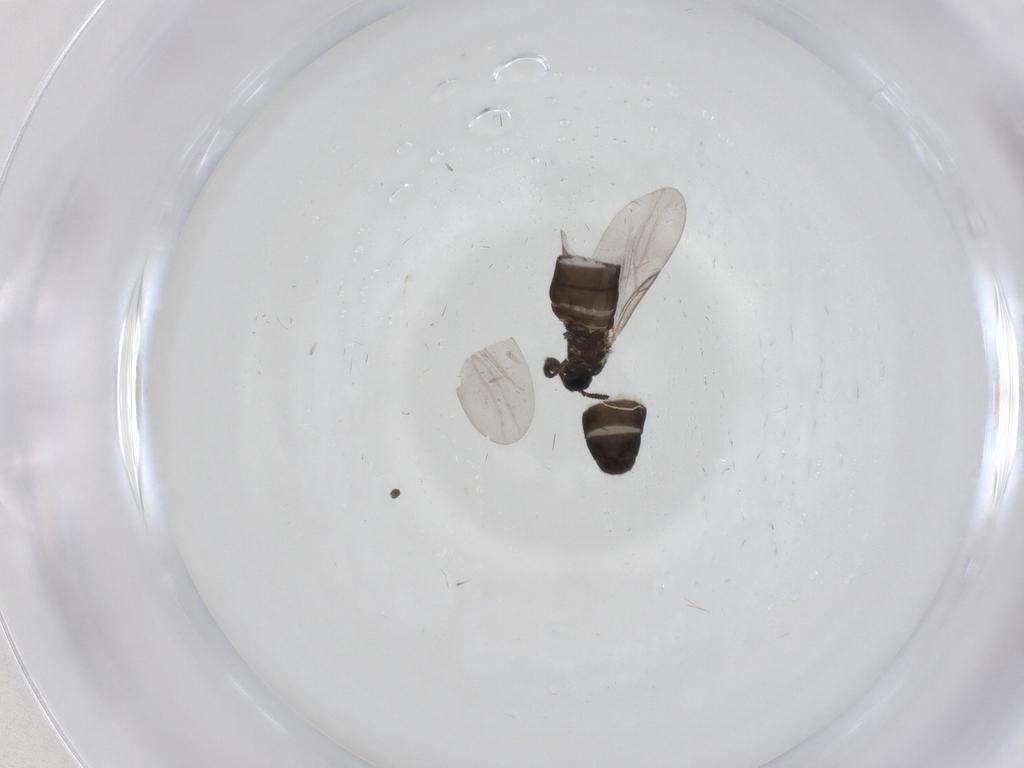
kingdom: Animalia
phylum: Arthropoda
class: Insecta
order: Diptera
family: Scatopsidae
